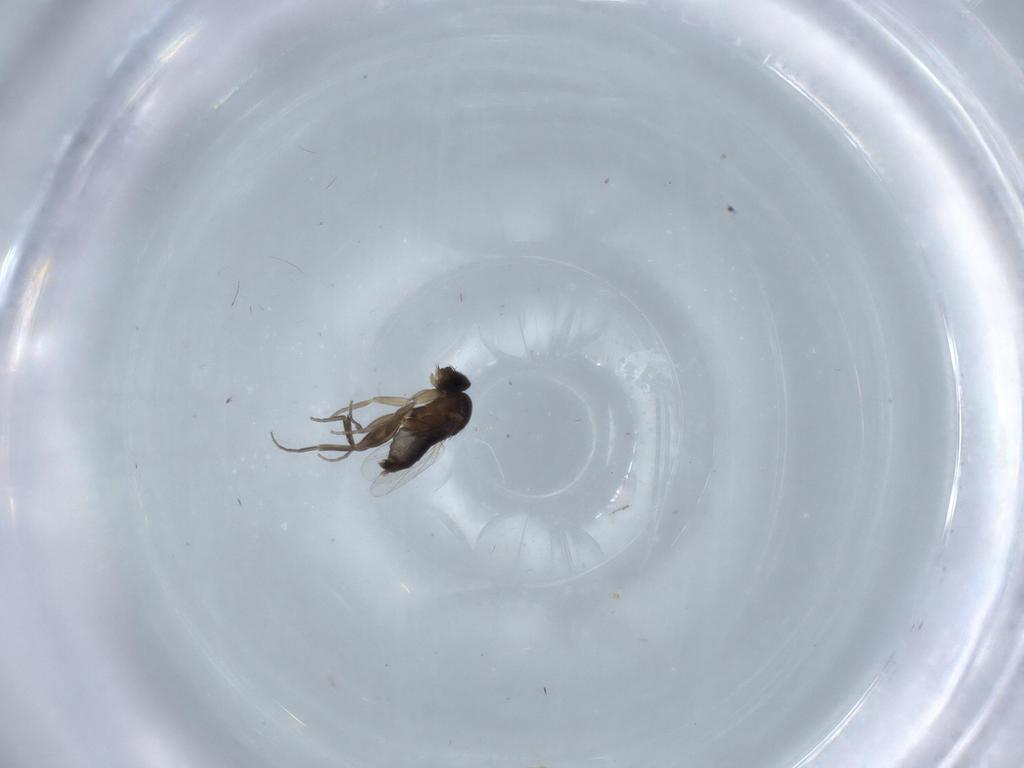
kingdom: Animalia
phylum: Arthropoda
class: Insecta
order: Diptera
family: Phoridae
